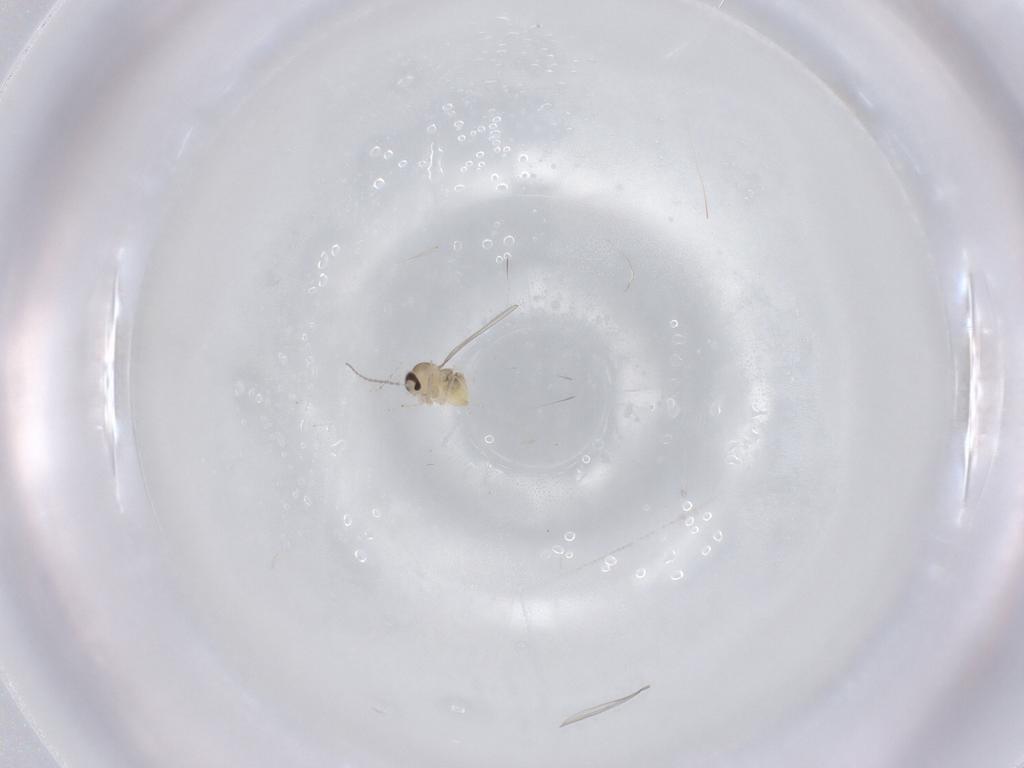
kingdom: Animalia
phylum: Arthropoda
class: Insecta
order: Diptera
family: Cecidomyiidae
